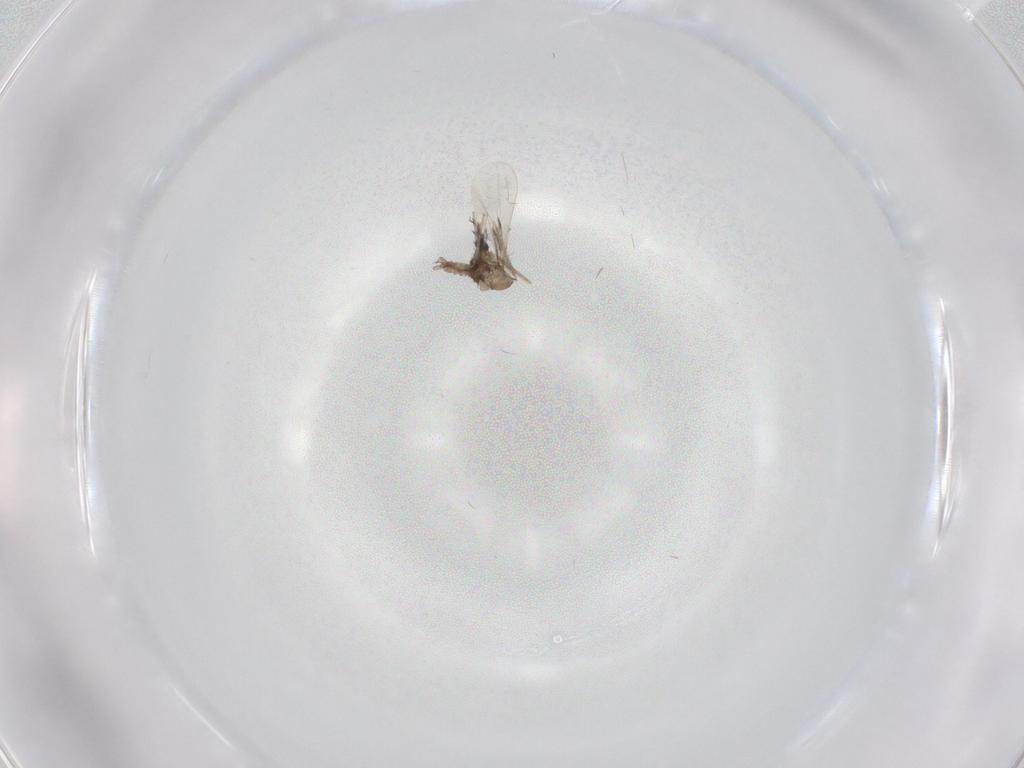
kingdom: Animalia
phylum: Arthropoda
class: Insecta
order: Diptera
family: Cecidomyiidae
